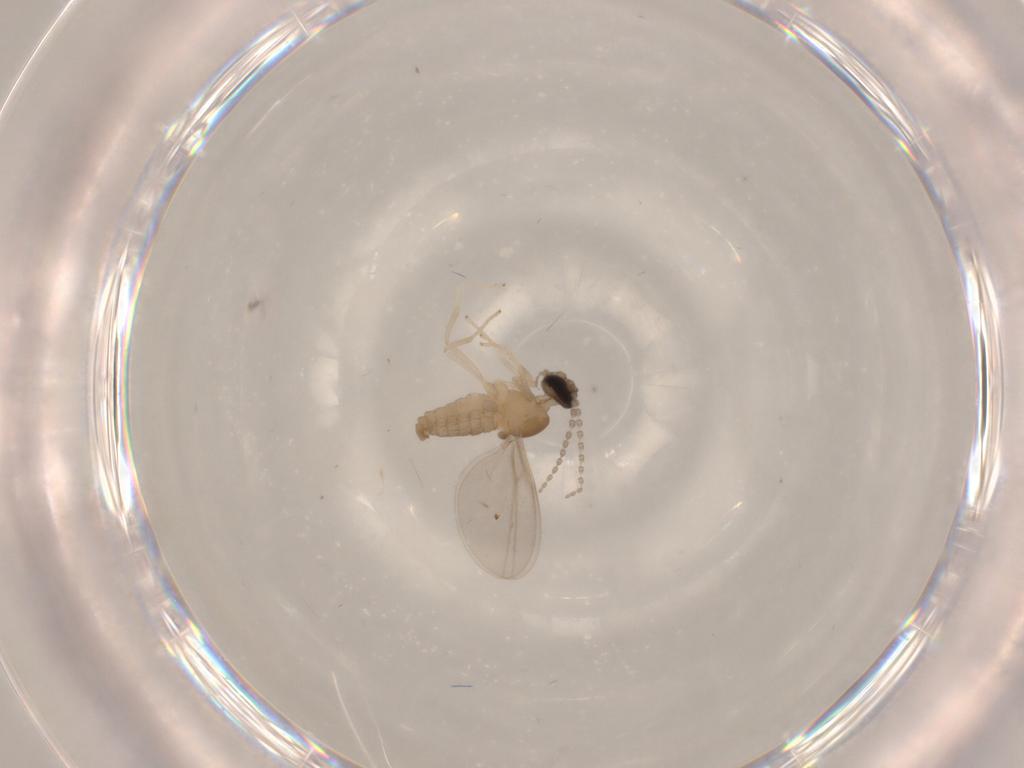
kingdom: Animalia
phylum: Arthropoda
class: Insecta
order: Diptera
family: Cecidomyiidae
